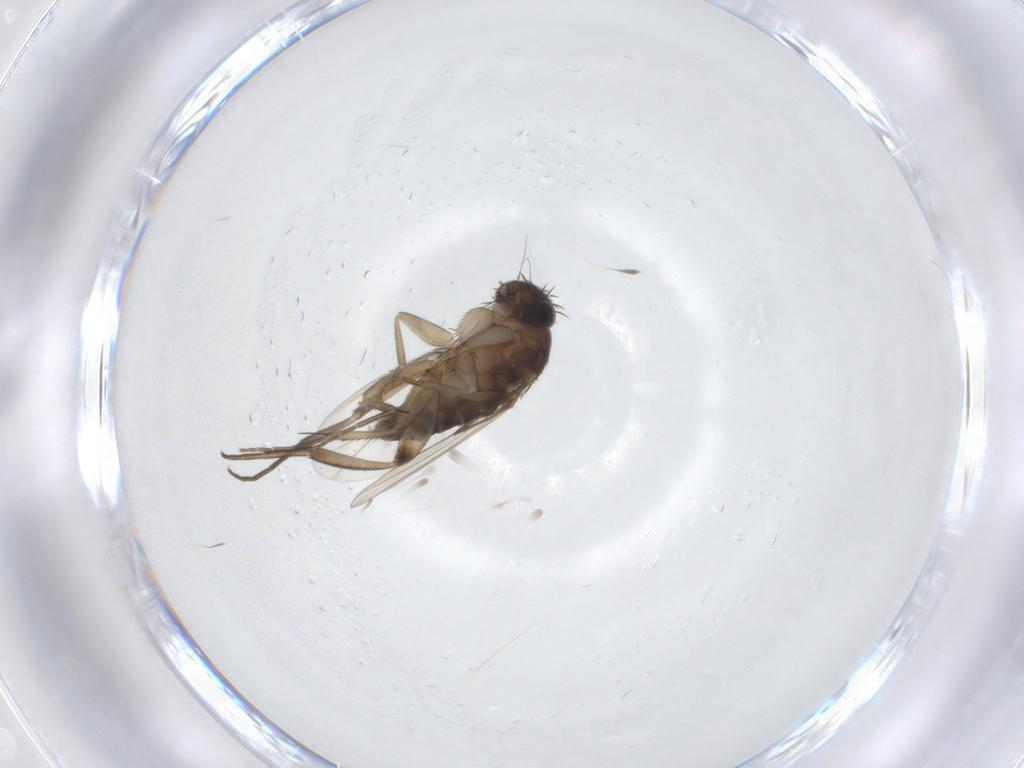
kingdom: Animalia
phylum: Arthropoda
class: Insecta
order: Diptera
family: Phoridae
